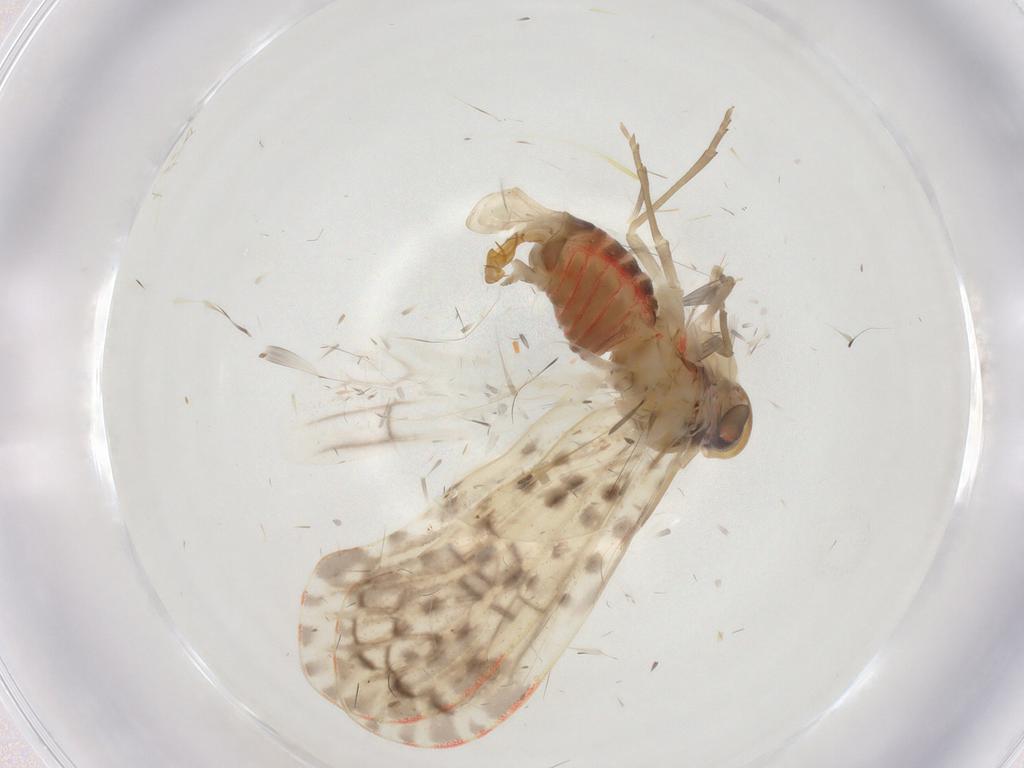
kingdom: Animalia
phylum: Arthropoda
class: Insecta
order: Hemiptera
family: Derbidae
